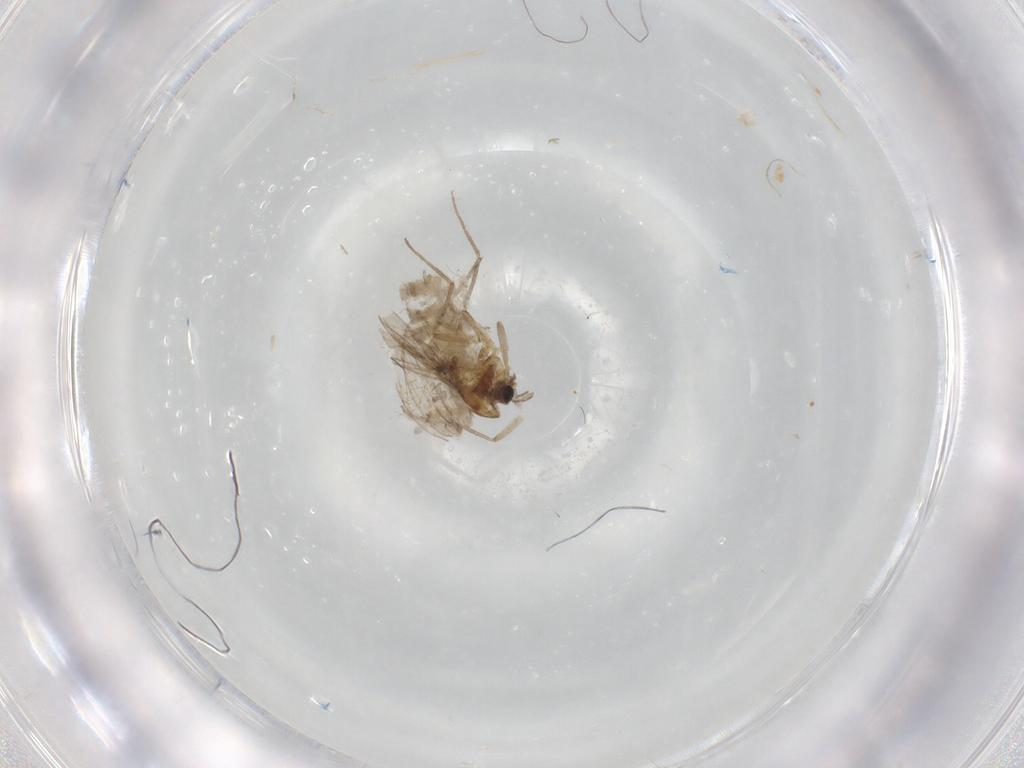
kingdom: Animalia
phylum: Arthropoda
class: Insecta
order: Diptera
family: Chironomidae
